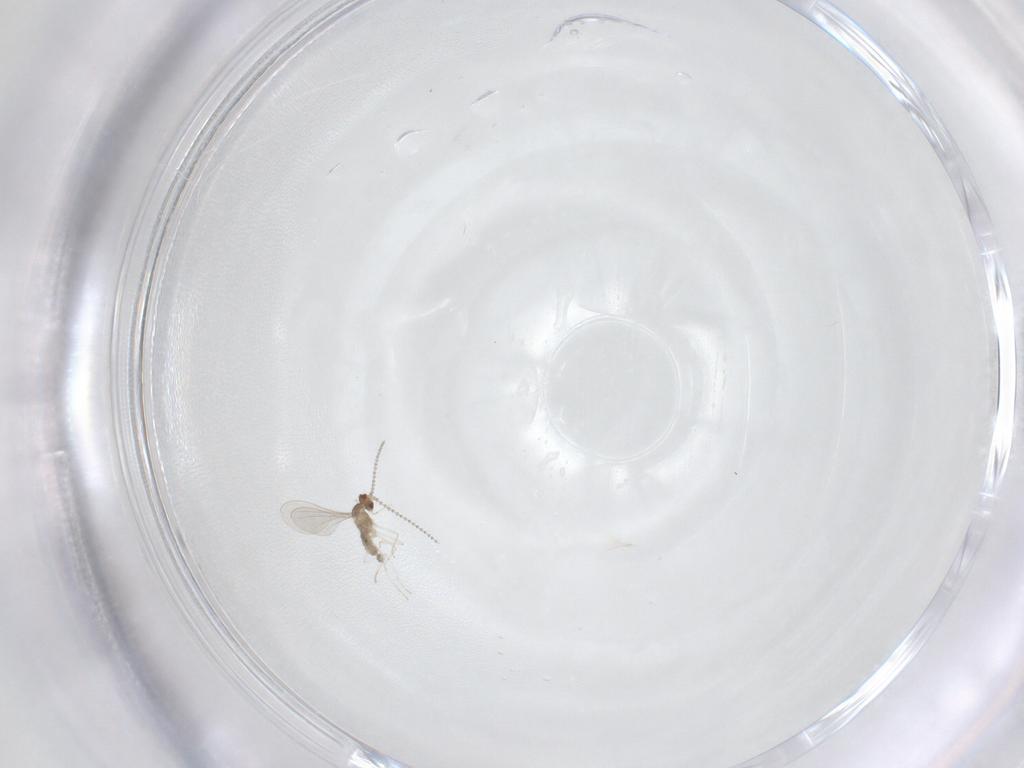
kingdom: Animalia
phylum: Arthropoda
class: Insecta
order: Diptera
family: Cecidomyiidae
